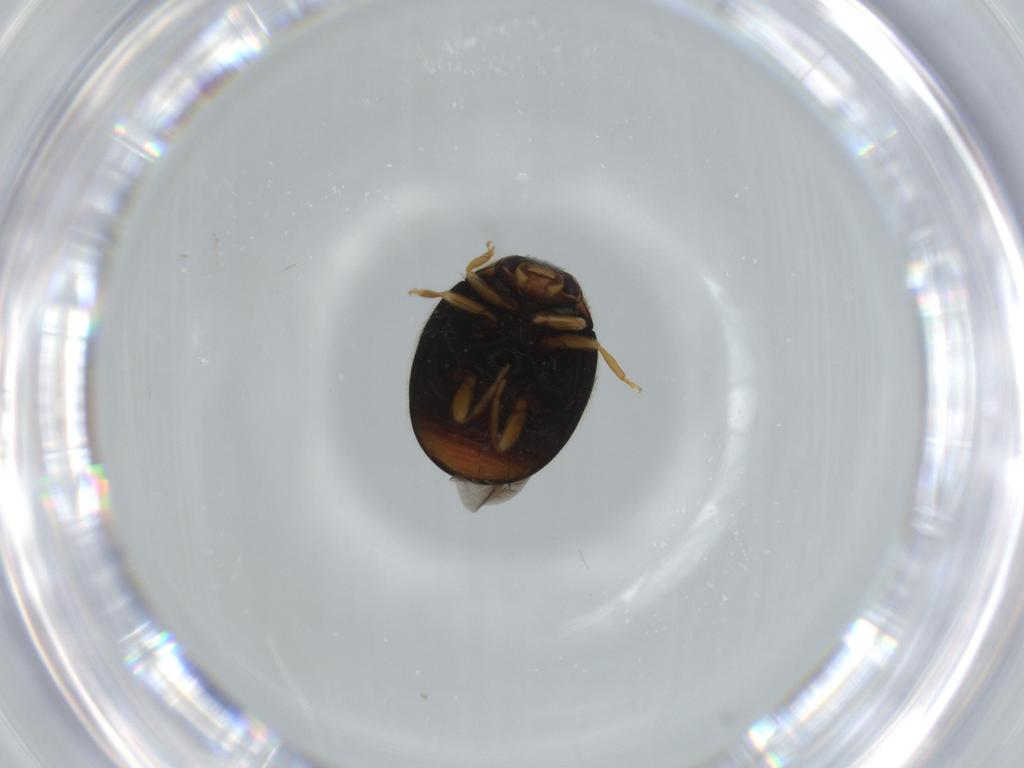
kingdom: Animalia
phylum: Arthropoda
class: Insecta
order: Coleoptera
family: Coccinellidae
